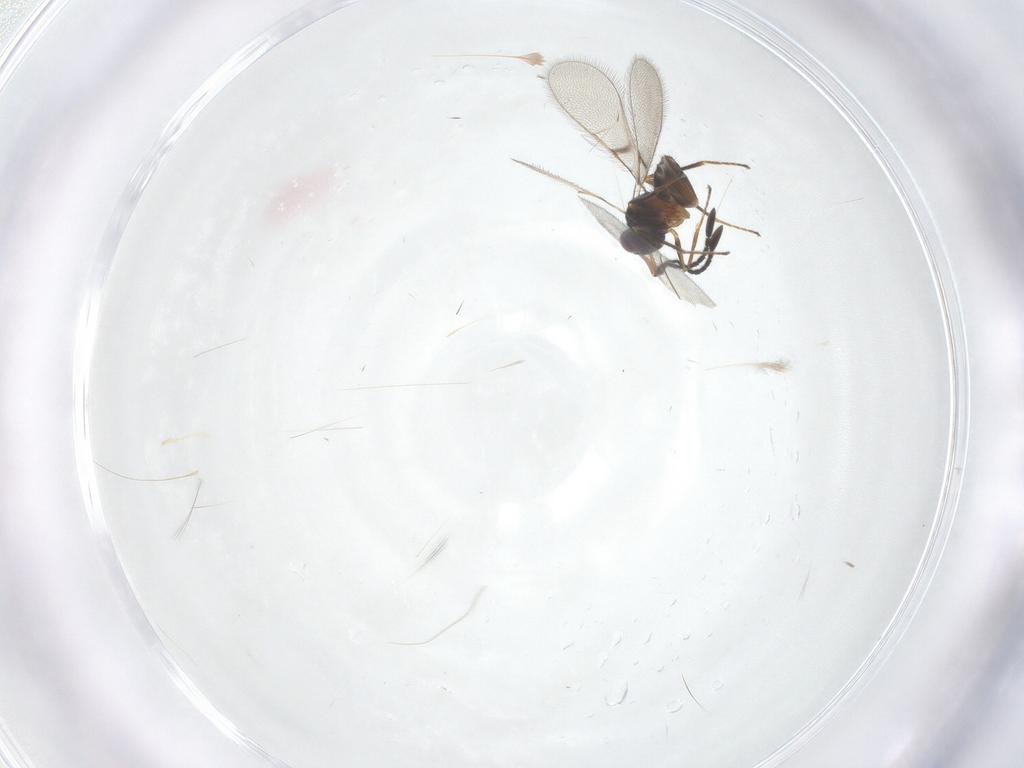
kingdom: Animalia
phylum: Arthropoda
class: Insecta
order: Hymenoptera
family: Mymaridae
